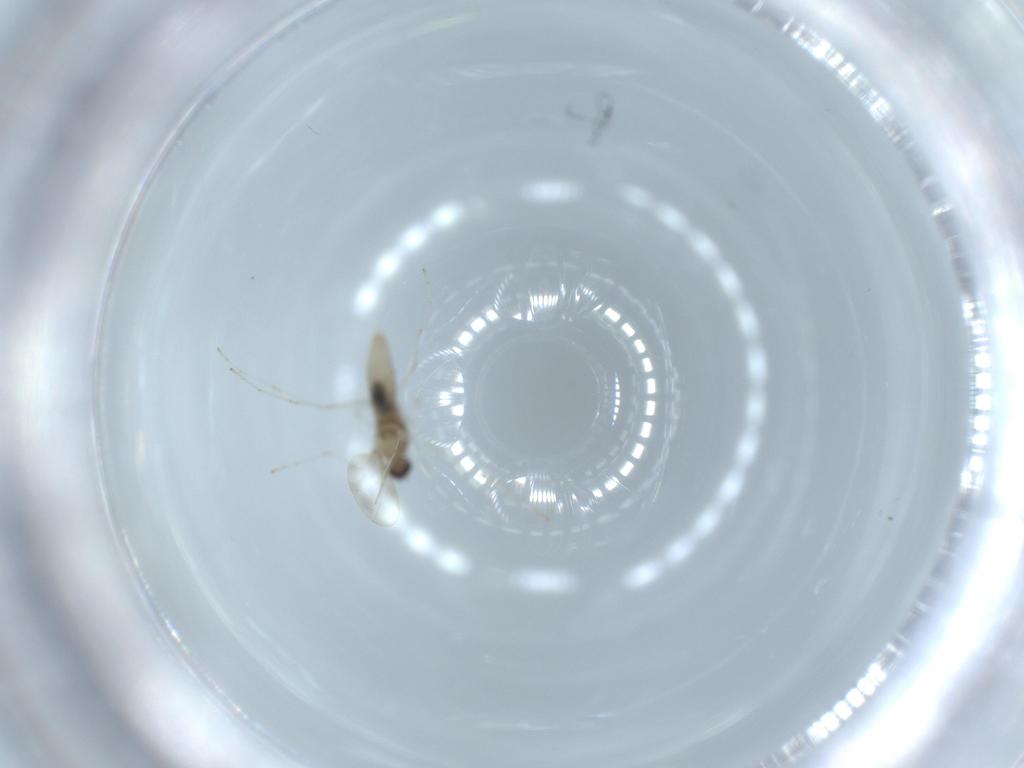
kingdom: Animalia
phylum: Arthropoda
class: Insecta
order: Diptera
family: Cecidomyiidae
